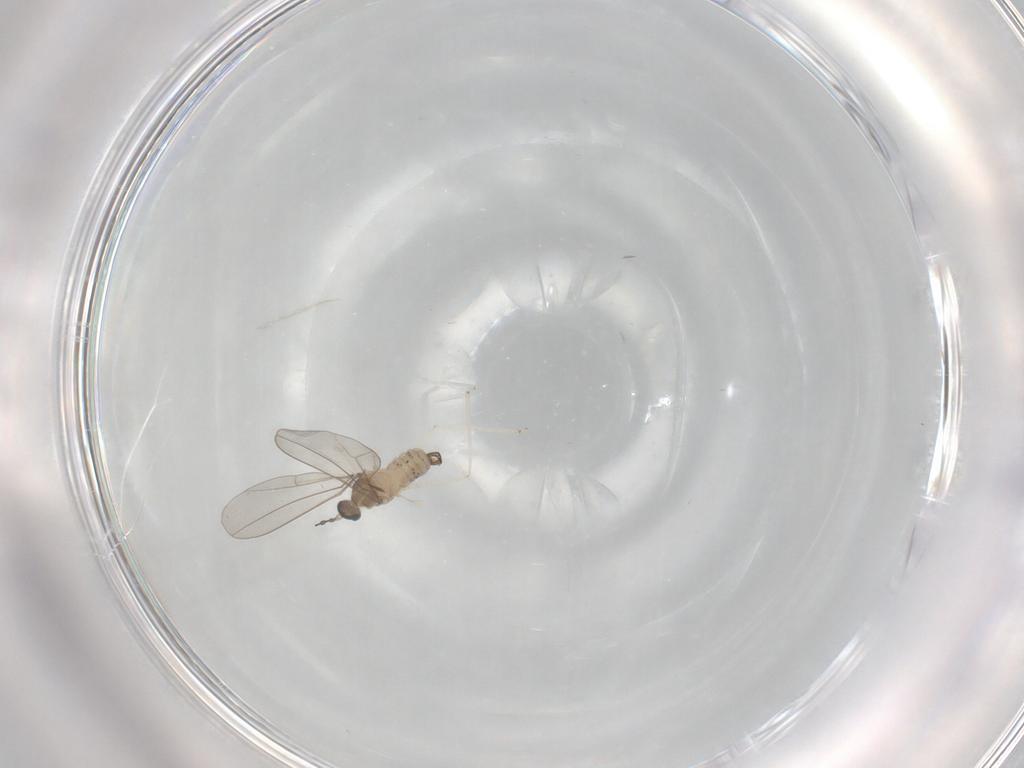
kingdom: Animalia
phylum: Arthropoda
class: Insecta
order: Diptera
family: Cecidomyiidae
